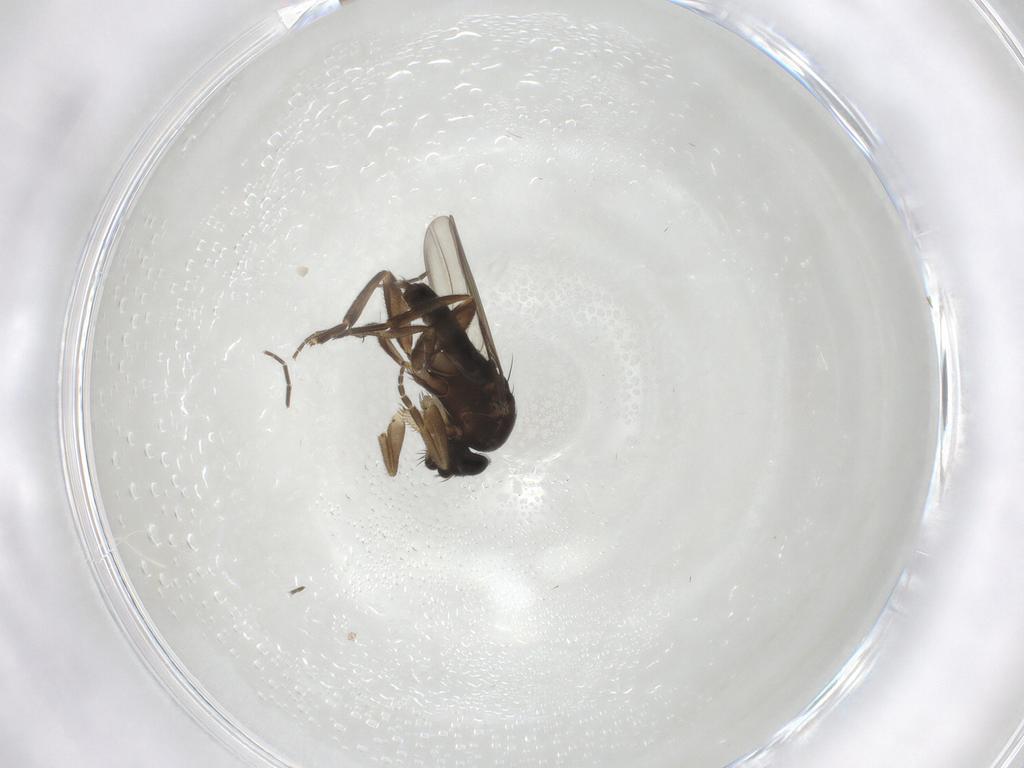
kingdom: Animalia
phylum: Arthropoda
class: Insecta
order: Diptera
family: Phoridae
